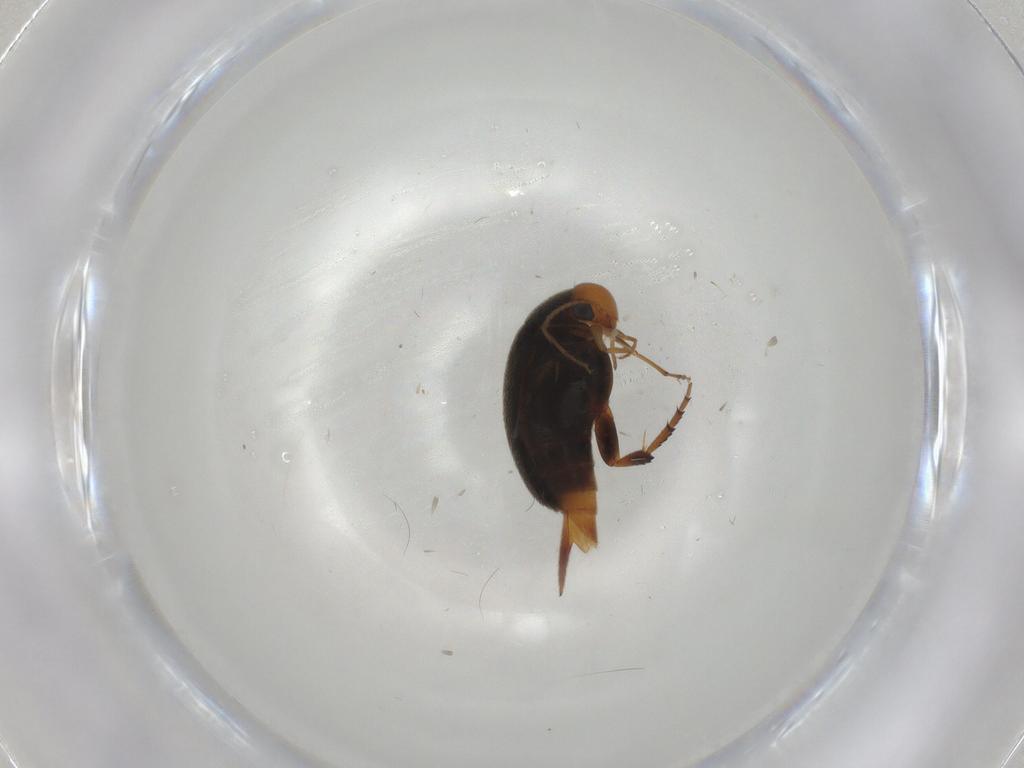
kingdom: Animalia
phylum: Arthropoda
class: Insecta
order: Coleoptera
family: Mordellidae
